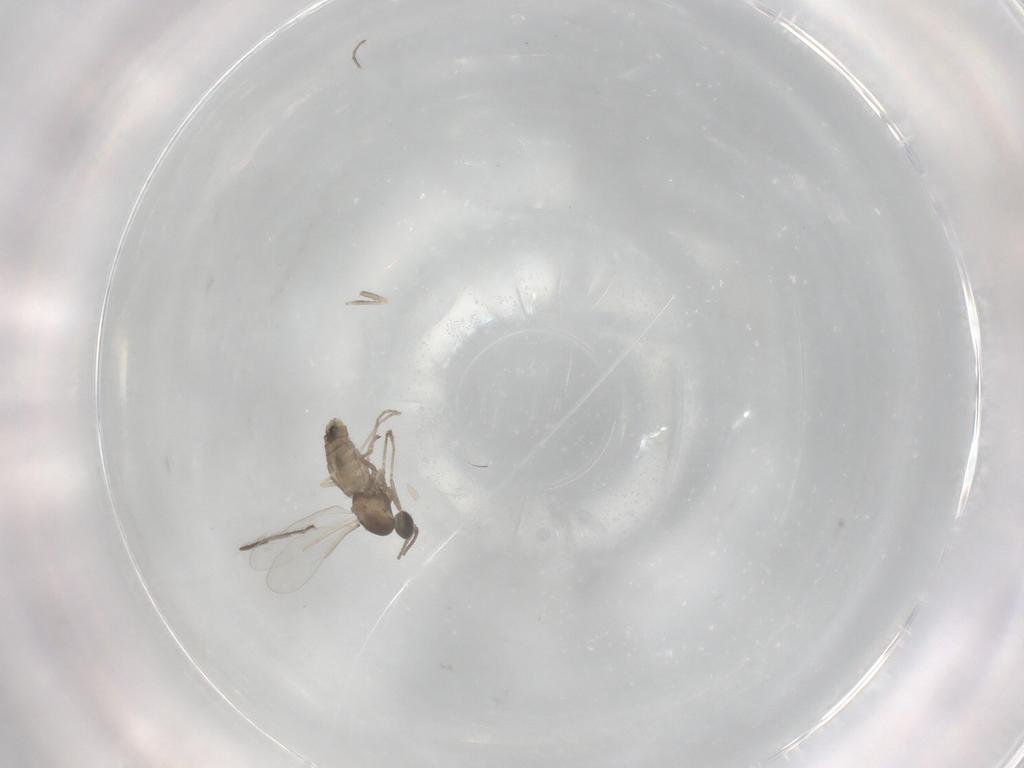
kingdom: Animalia
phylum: Arthropoda
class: Insecta
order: Diptera
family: Cecidomyiidae
